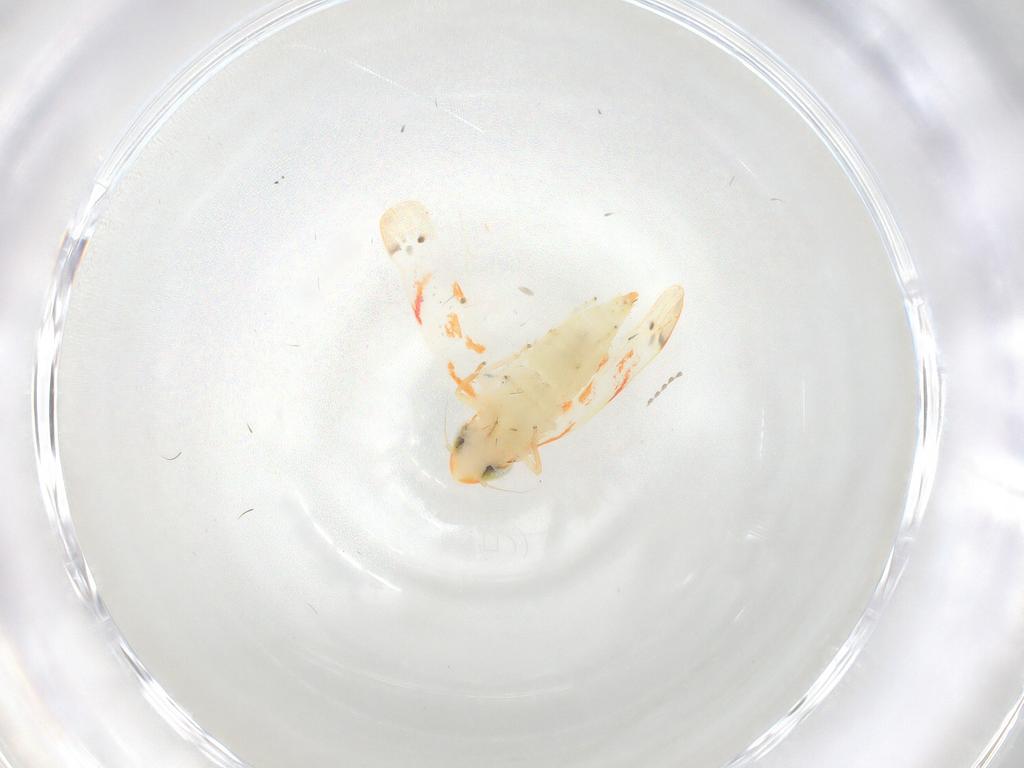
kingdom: Animalia
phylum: Arthropoda
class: Insecta
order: Hemiptera
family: Cicadellidae
